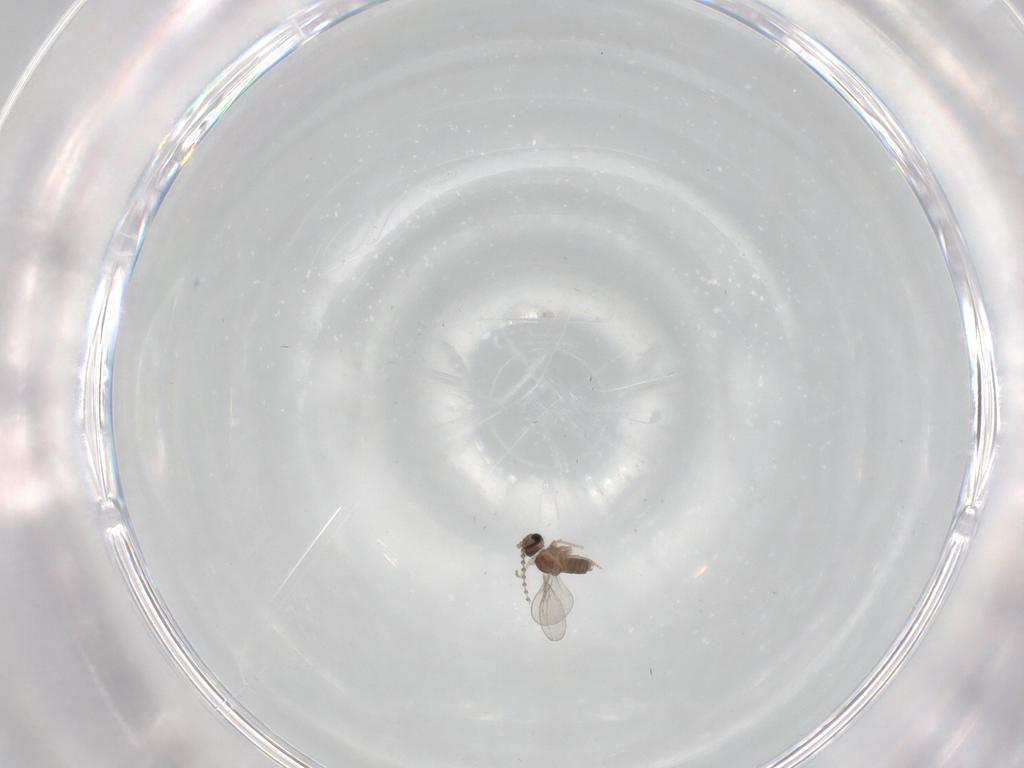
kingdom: Animalia
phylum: Arthropoda
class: Insecta
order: Diptera
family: Cecidomyiidae
